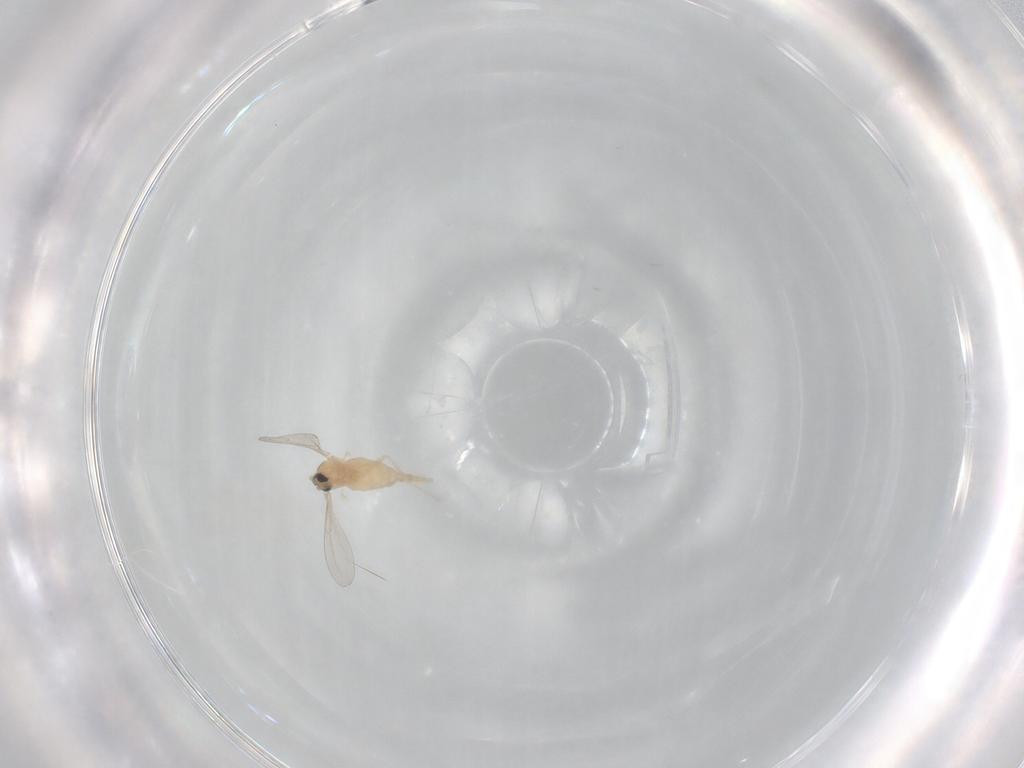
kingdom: Animalia
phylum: Arthropoda
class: Insecta
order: Diptera
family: Cecidomyiidae
